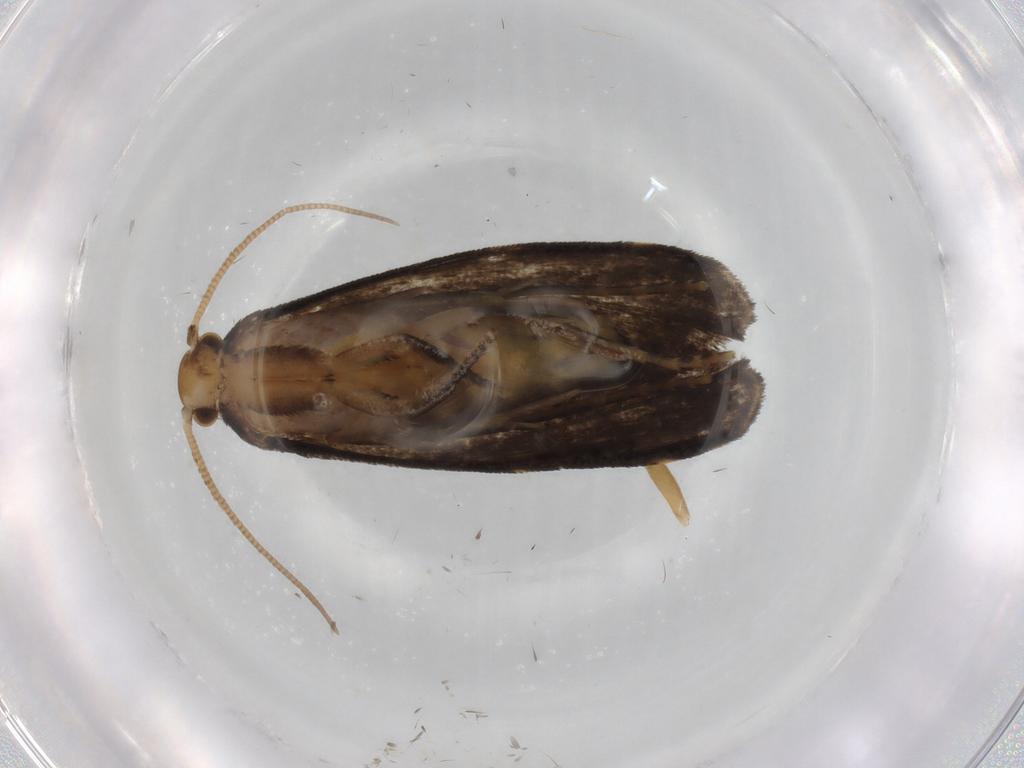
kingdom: Animalia
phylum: Arthropoda
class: Insecta
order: Lepidoptera
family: Dryadaulidae
